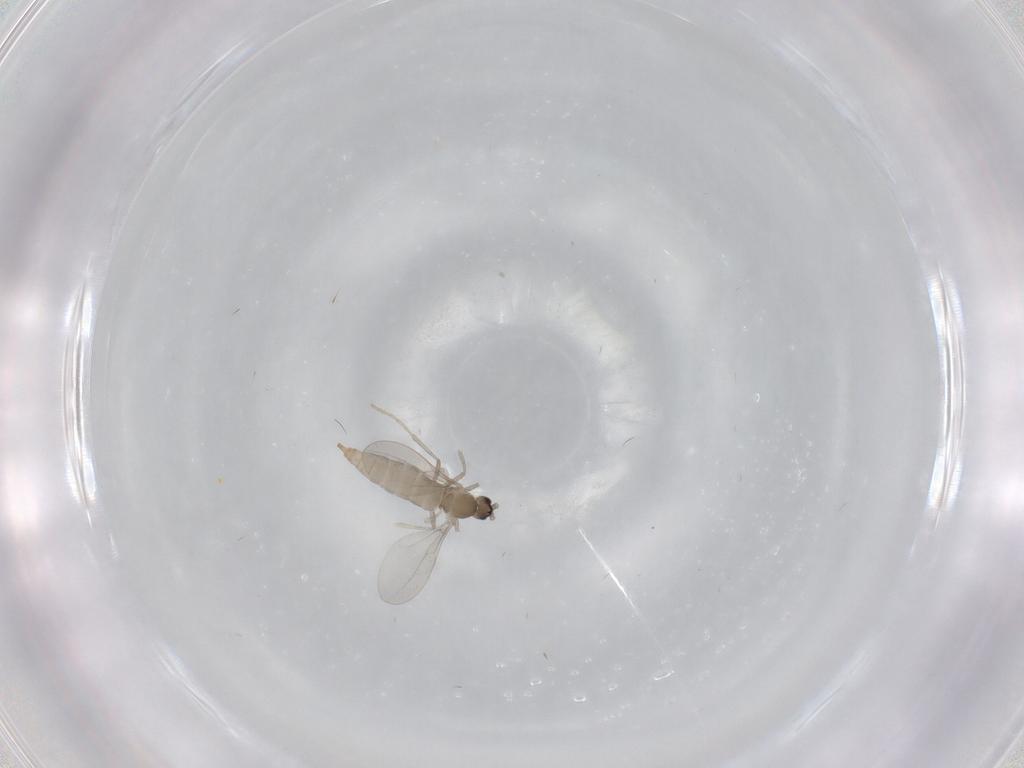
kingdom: Animalia
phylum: Arthropoda
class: Insecta
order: Diptera
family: Cecidomyiidae
